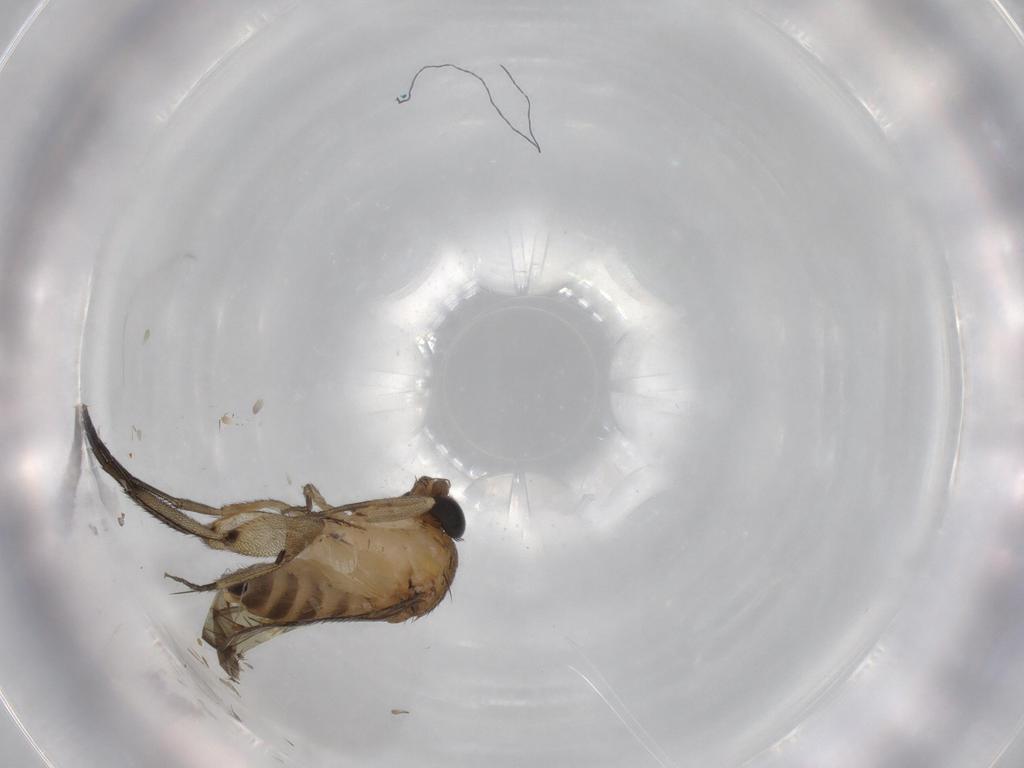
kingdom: Animalia
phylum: Arthropoda
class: Insecta
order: Diptera
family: Phoridae
